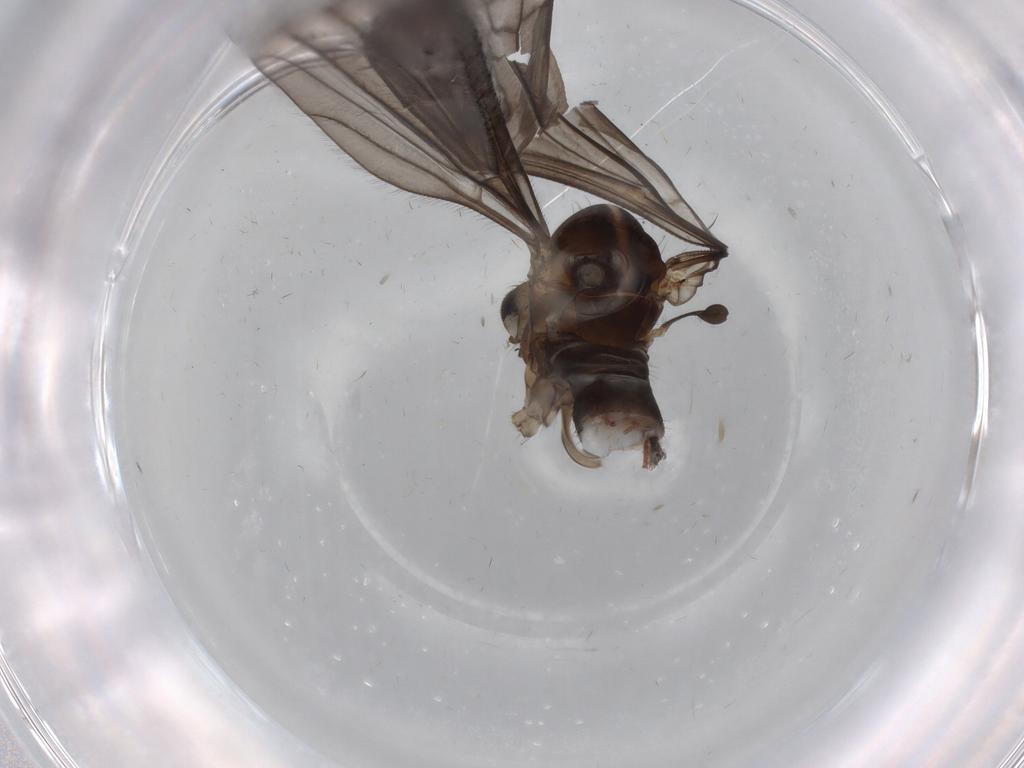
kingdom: Animalia
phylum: Arthropoda
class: Insecta
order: Diptera
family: Cecidomyiidae
